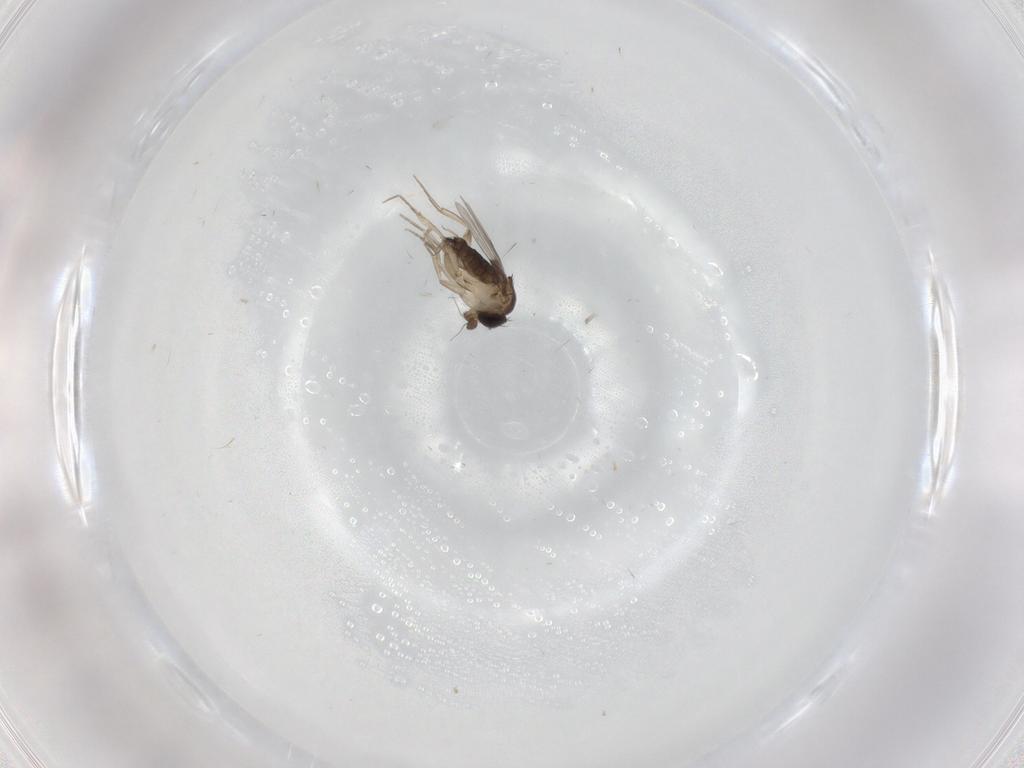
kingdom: Animalia
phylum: Arthropoda
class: Insecta
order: Diptera
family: Phoridae
